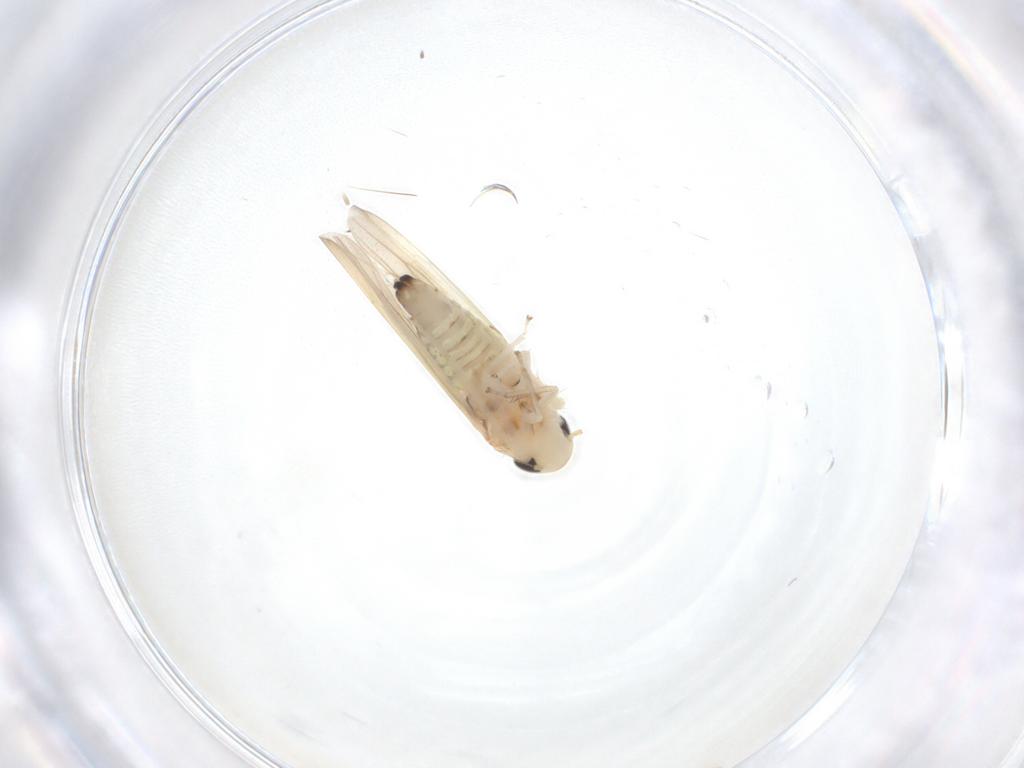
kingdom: Animalia
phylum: Arthropoda
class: Insecta
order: Hemiptera
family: Cicadellidae
